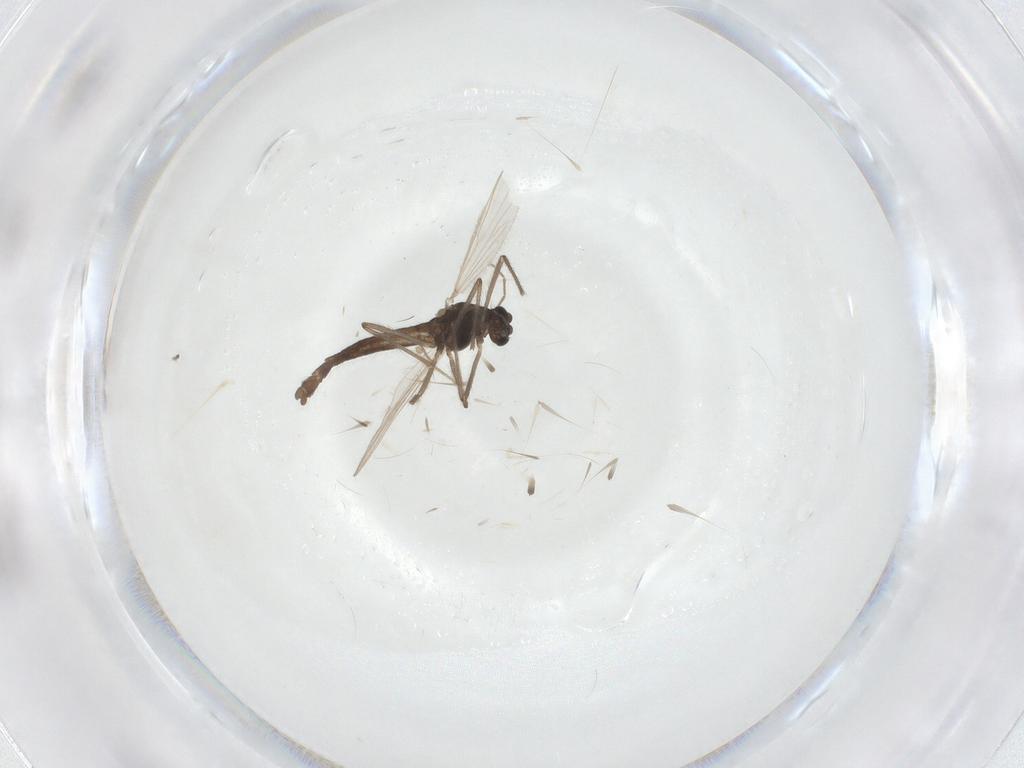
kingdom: Animalia
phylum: Arthropoda
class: Insecta
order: Diptera
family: Chironomidae
